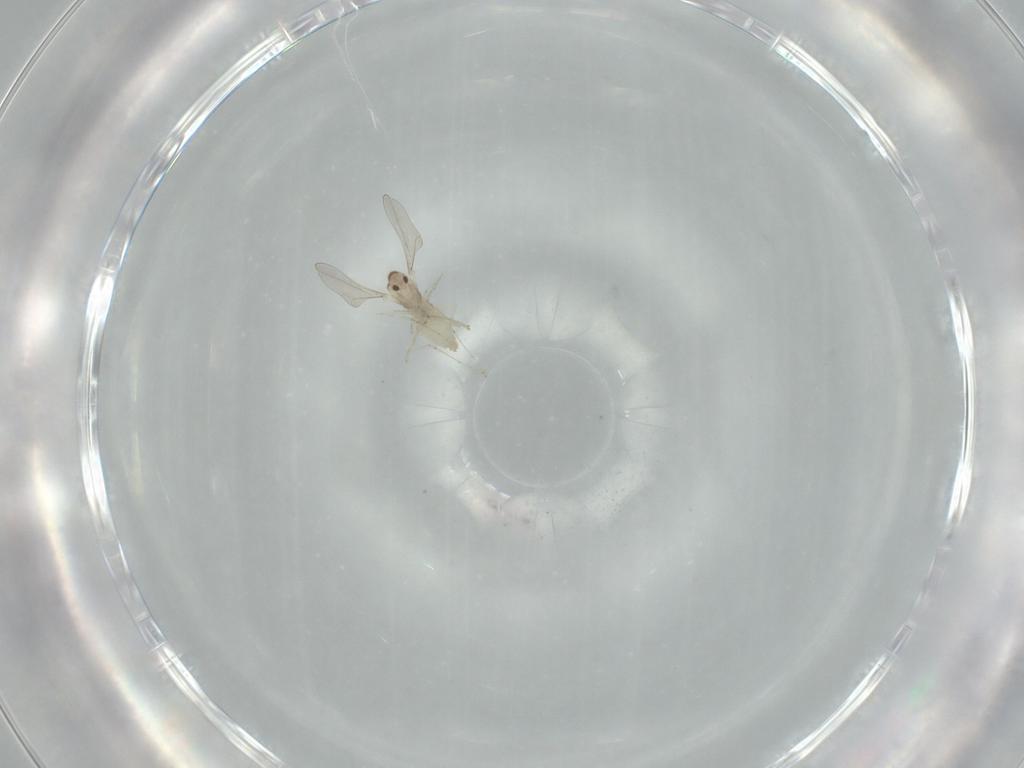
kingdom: Animalia
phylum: Arthropoda
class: Insecta
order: Diptera
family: Cecidomyiidae
